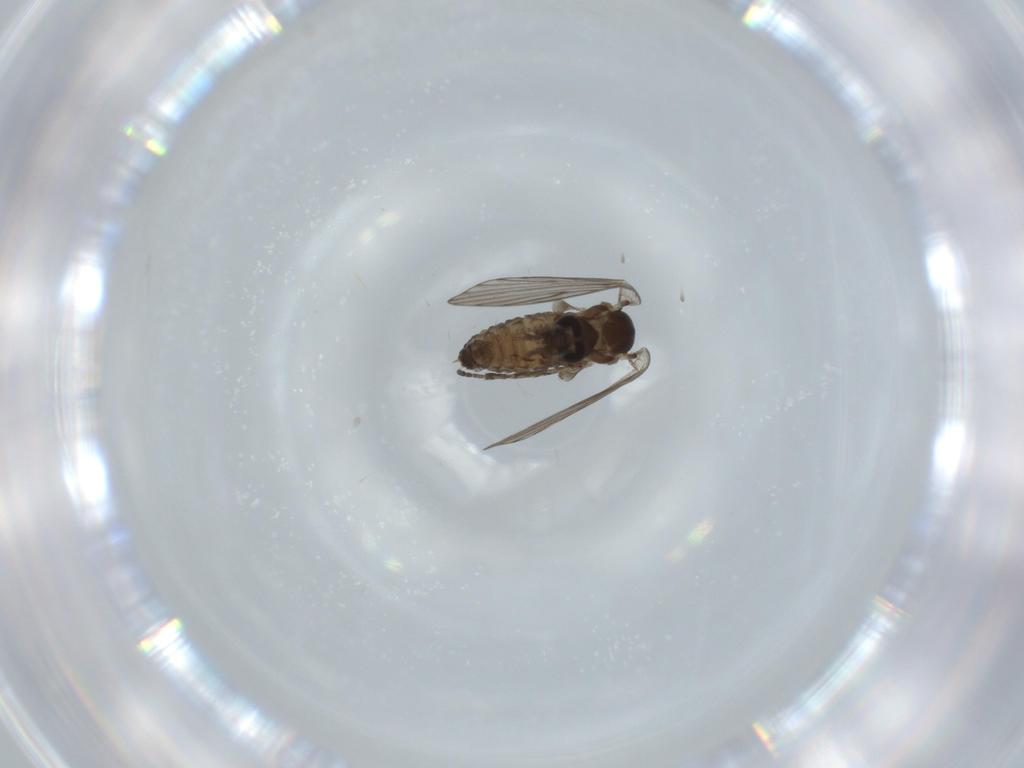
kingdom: Animalia
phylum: Arthropoda
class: Insecta
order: Diptera
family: Psychodidae
